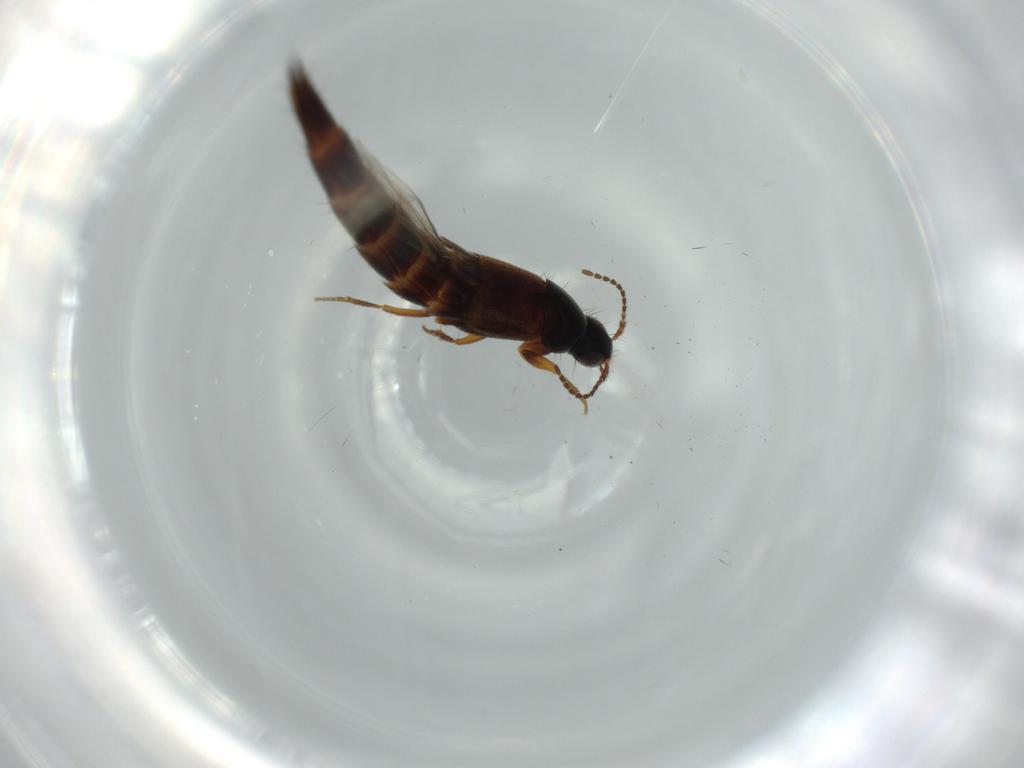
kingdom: Animalia
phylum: Arthropoda
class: Insecta
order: Coleoptera
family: Staphylinidae
